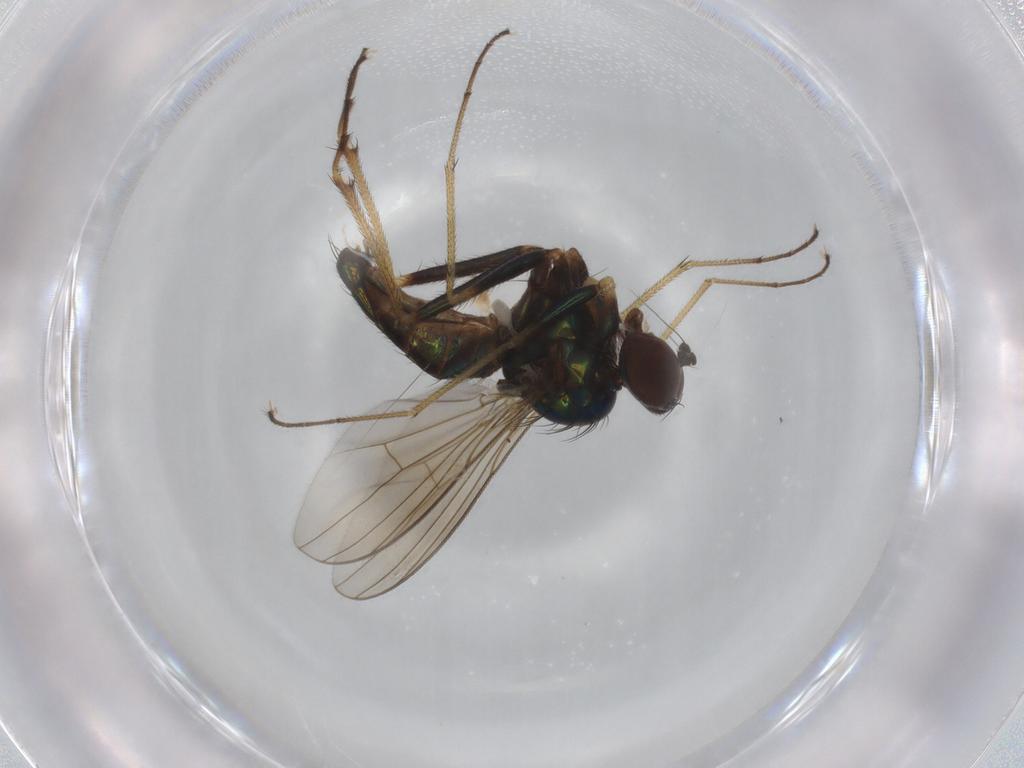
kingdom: Animalia
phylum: Arthropoda
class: Insecta
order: Diptera
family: Dolichopodidae
